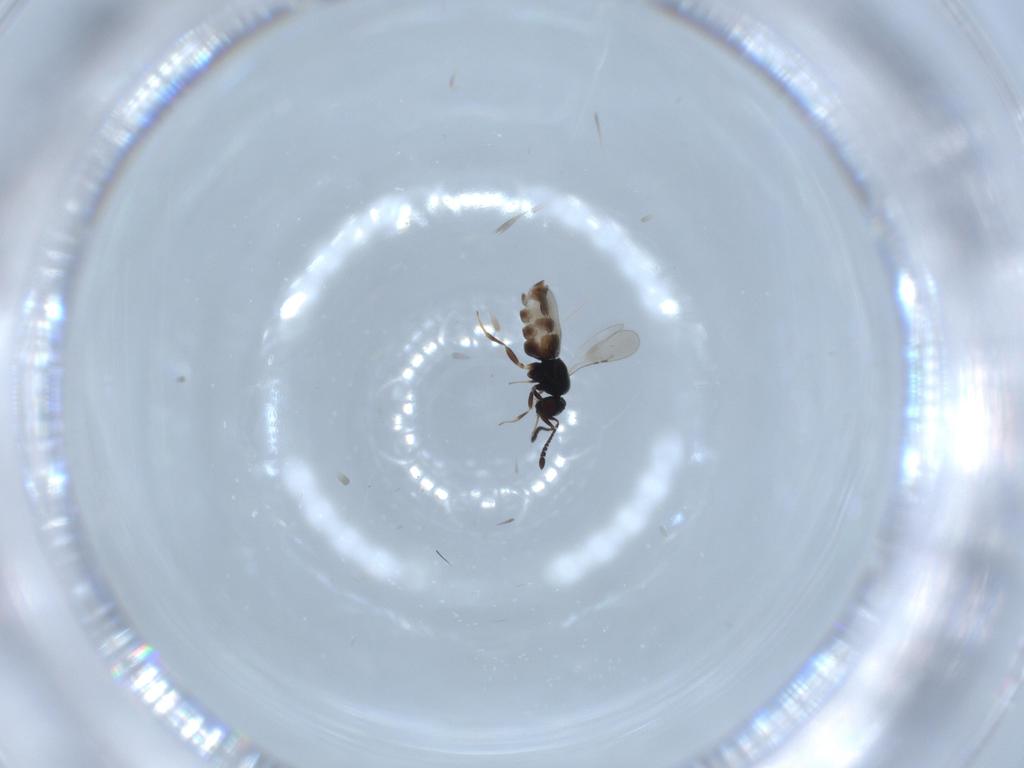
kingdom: Animalia
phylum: Arthropoda
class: Insecta
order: Hymenoptera
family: Ceraphronidae
